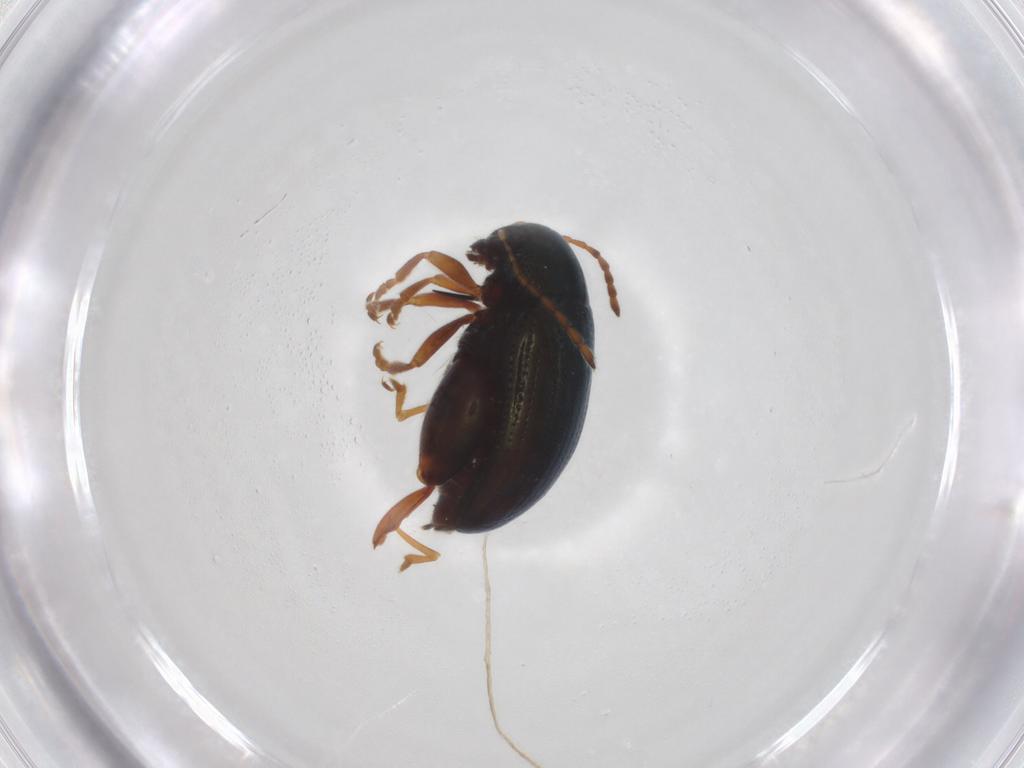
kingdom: Animalia
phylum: Arthropoda
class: Insecta
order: Coleoptera
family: Chrysomelidae
